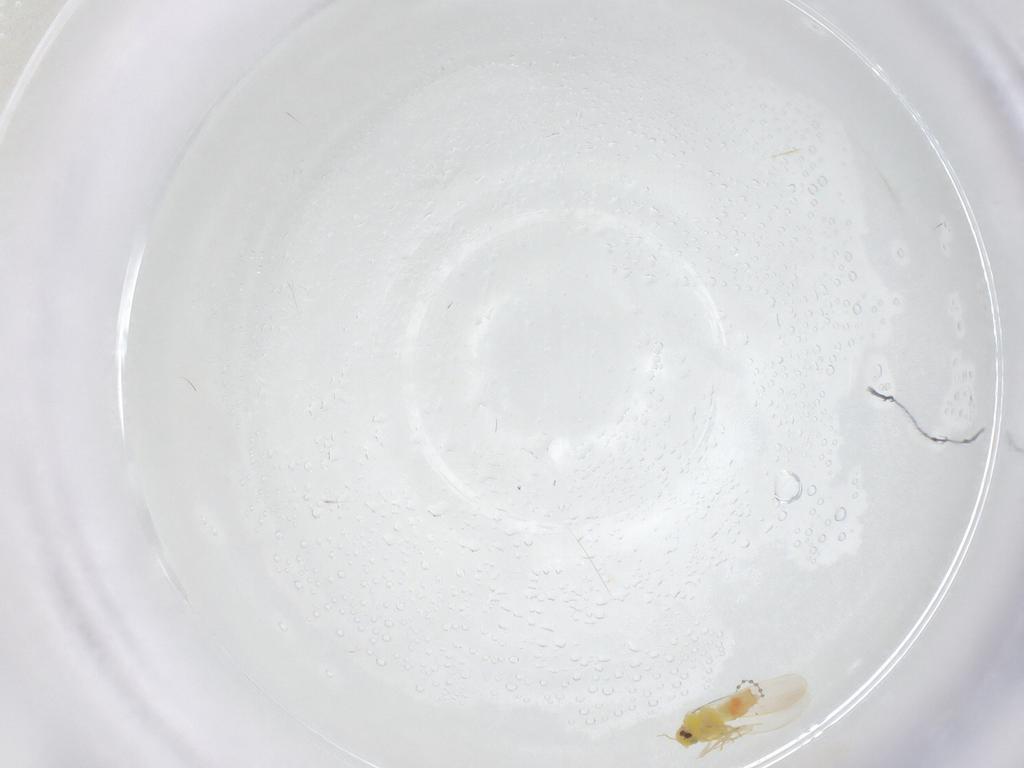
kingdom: Animalia
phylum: Arthropoda
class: Insecta
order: Hemiptera
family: Aleyrodidae
